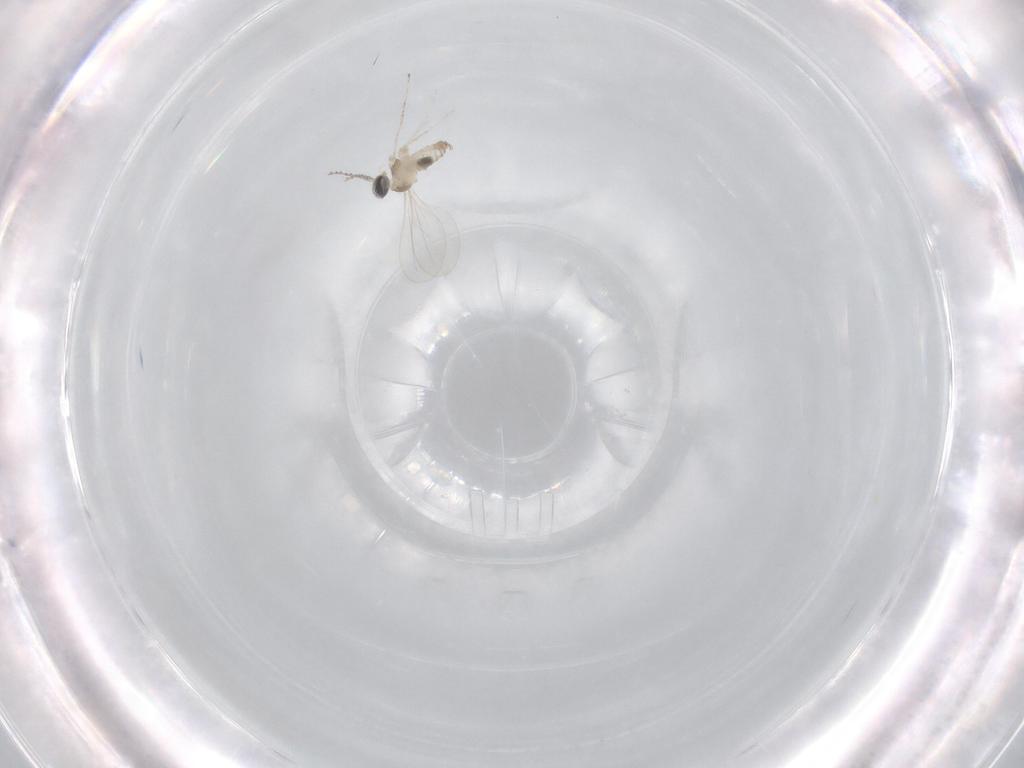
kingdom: Animalia
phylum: Arthropoda
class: Insecta
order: Diptera
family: Cecidomyiidae
